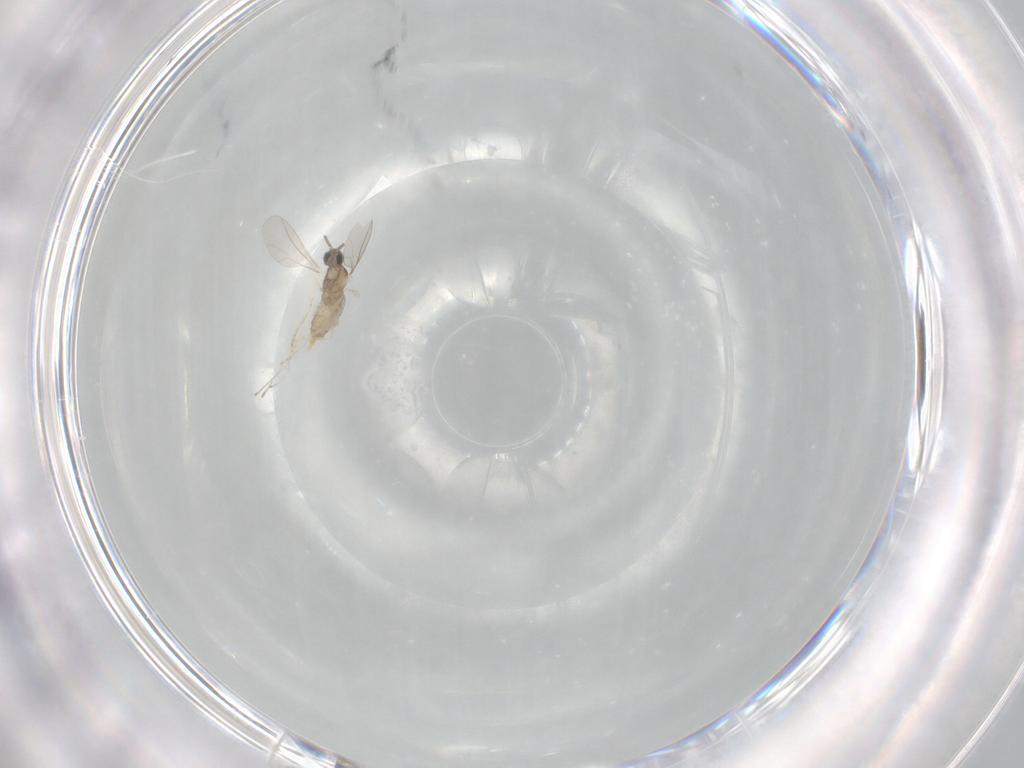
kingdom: Animalia
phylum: Arthropoda
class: Insecta
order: Diptera
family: Cecidomyiidae
